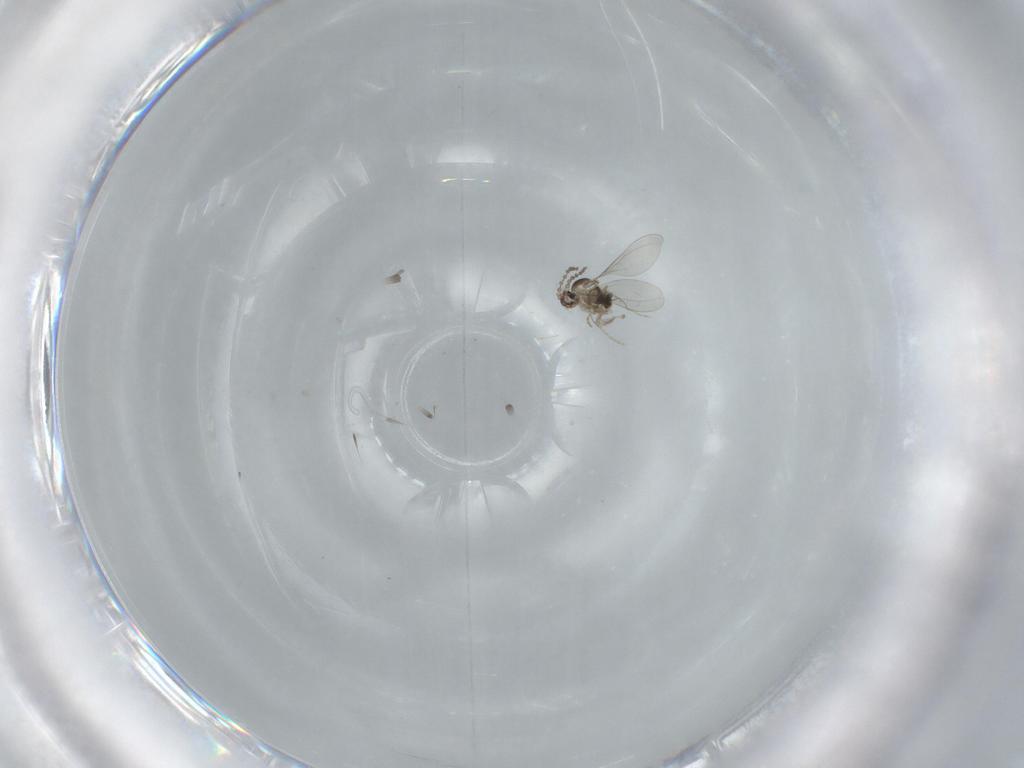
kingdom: Animalia
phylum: Arthropoda
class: Insecta
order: Diptera
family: Cecidomyiidae
